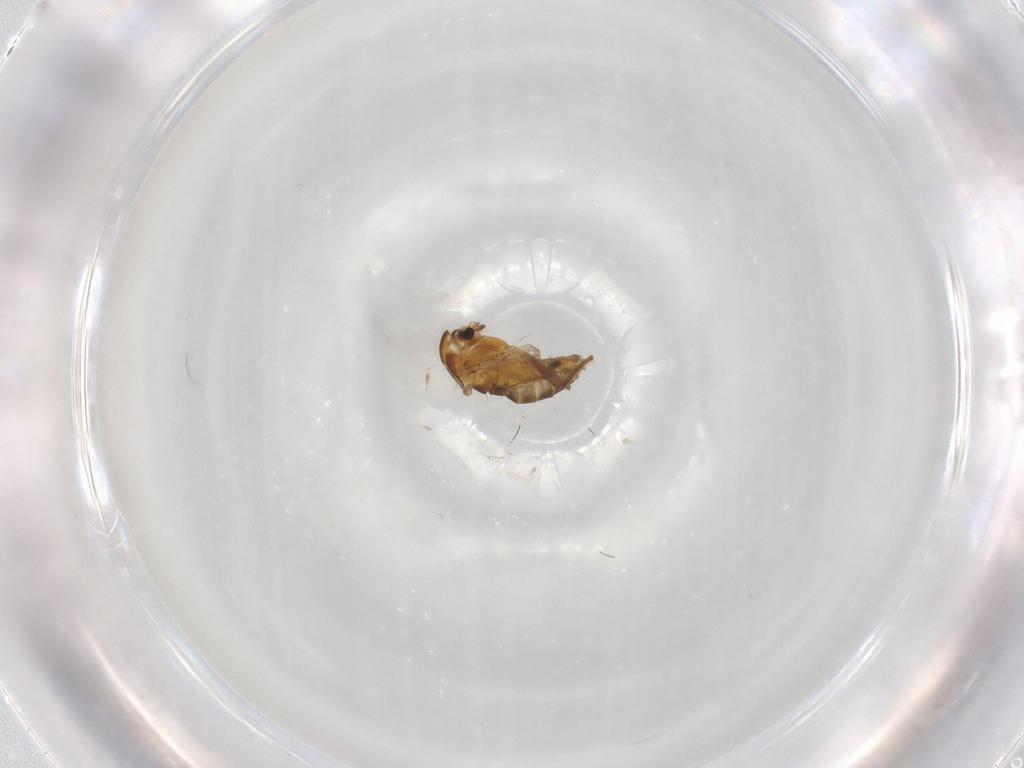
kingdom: Animalia
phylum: Arthropoda
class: Insecta
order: Diptera
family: Chironomidae
